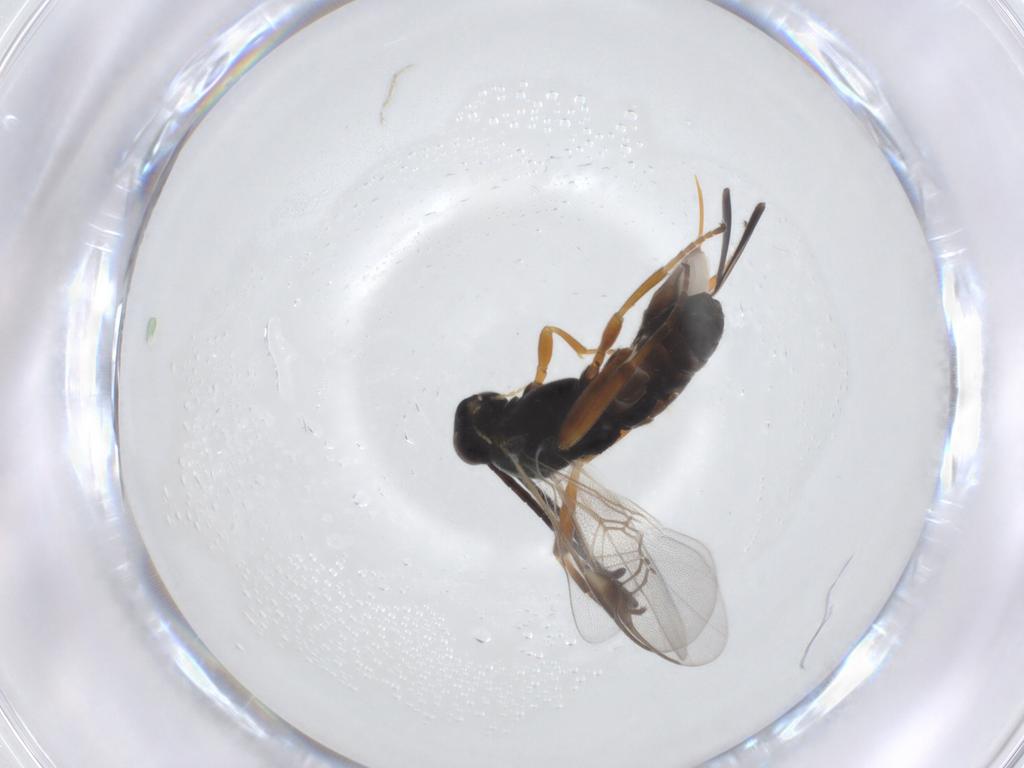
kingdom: Animalia
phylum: Arthropoda
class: Insecta
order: Hymenoptera
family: Braconidae
